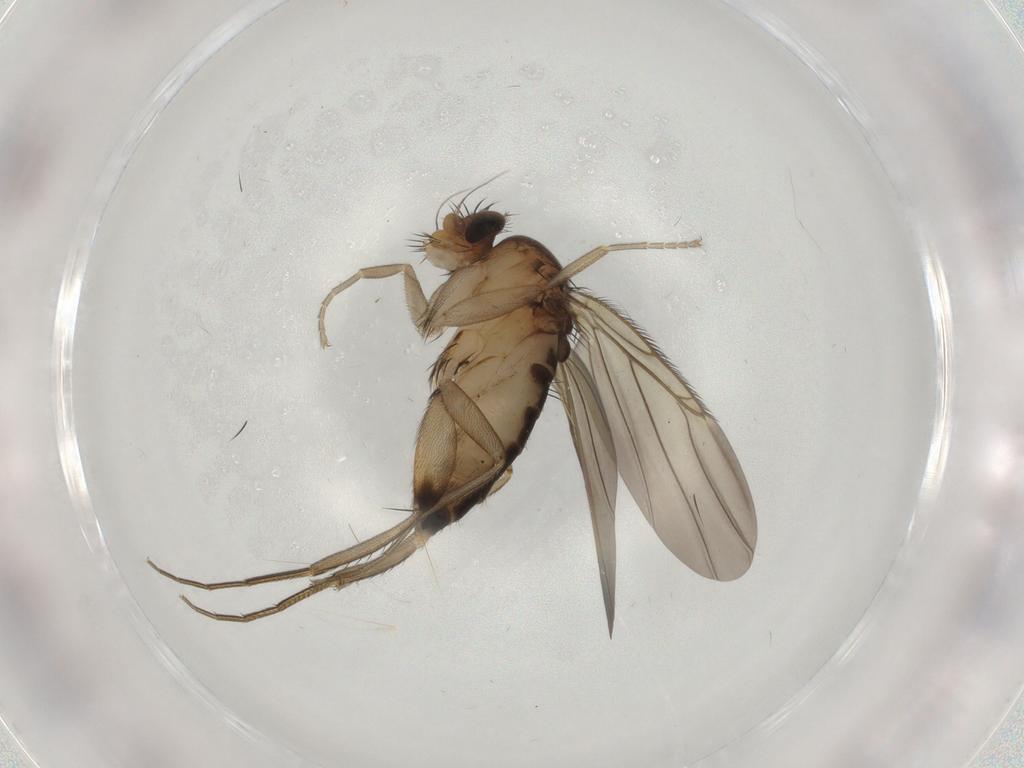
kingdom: Animalia
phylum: Arthropoda
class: Insecta
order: Diptera
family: Phoridae
